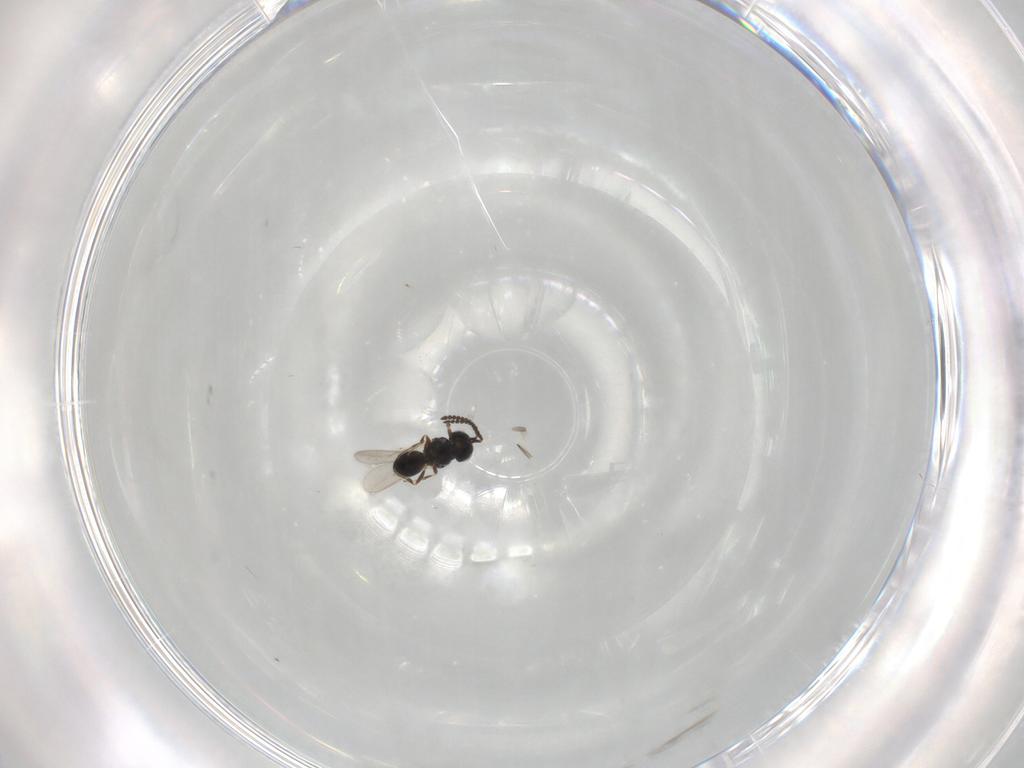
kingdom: Animalia
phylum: Arthropoda
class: Insecta
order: Hymenoptera
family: Scelionidae
